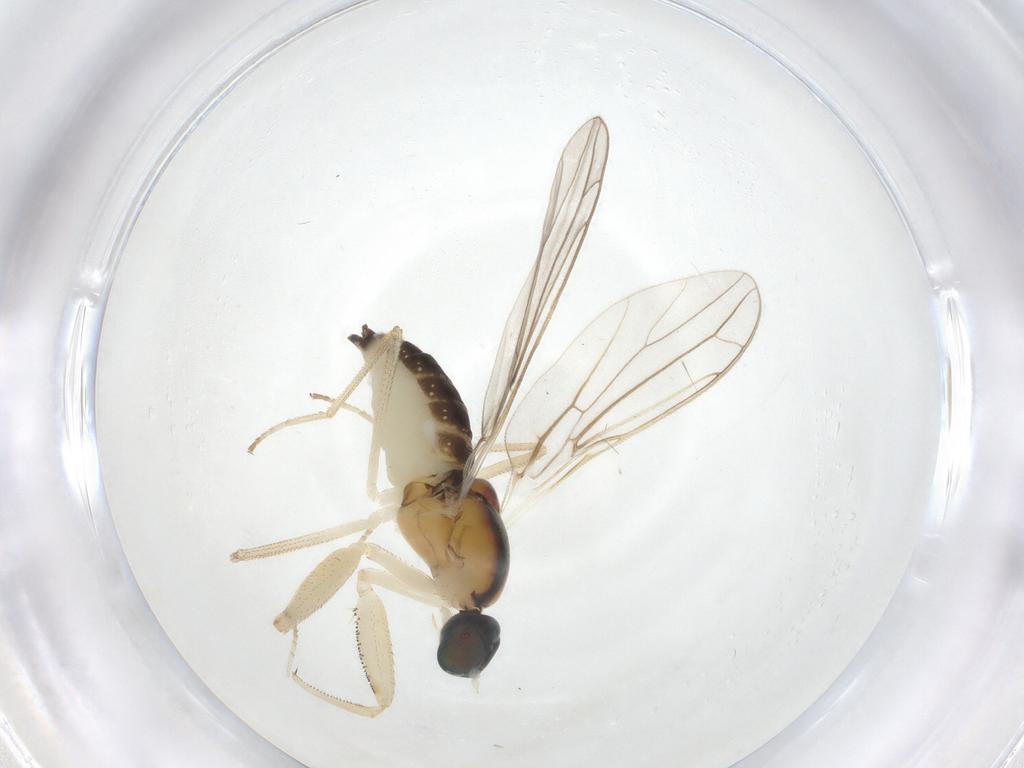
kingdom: Animalia
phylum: Arthropoda
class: Insecta
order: Diptera
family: Empididae
